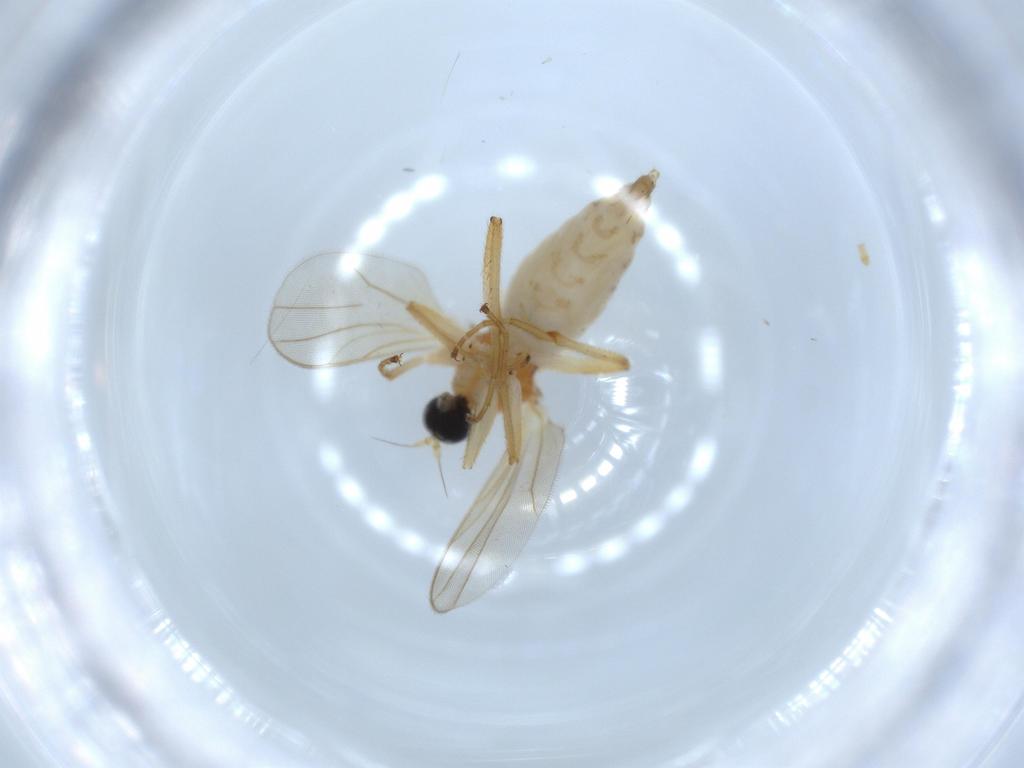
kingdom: Animalia
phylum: Arthropoda
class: Insecta
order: Diptera
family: Hybotidae
